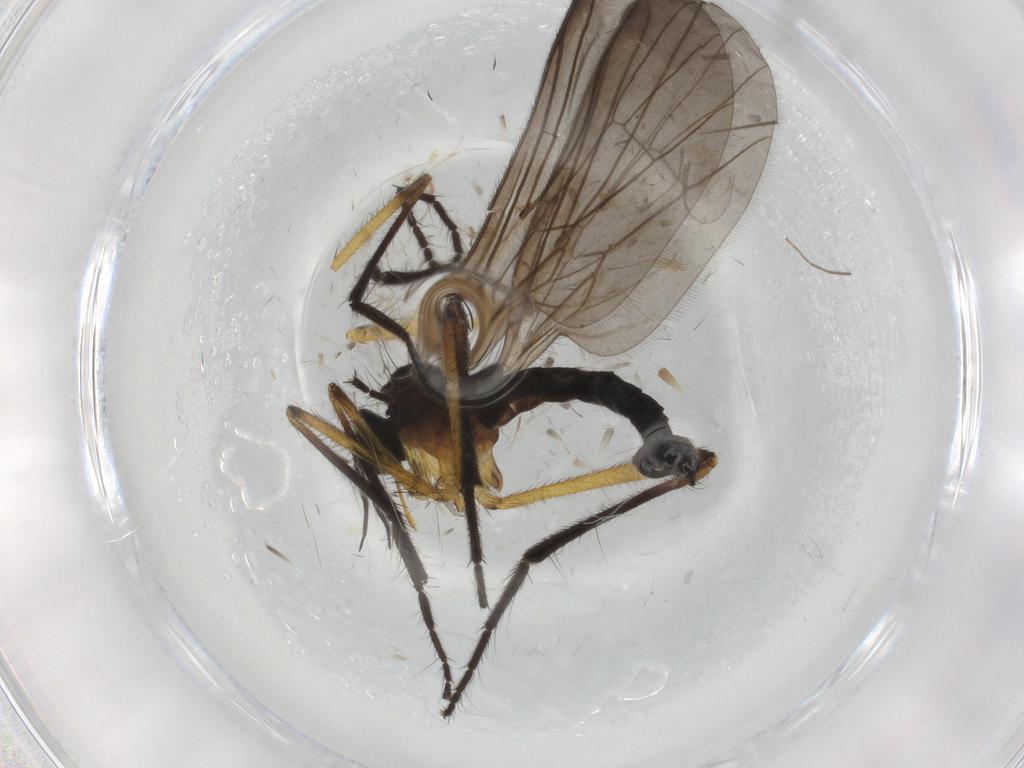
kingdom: Animalia
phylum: Arthropoda
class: Insecta
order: Diptera
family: Empididae
